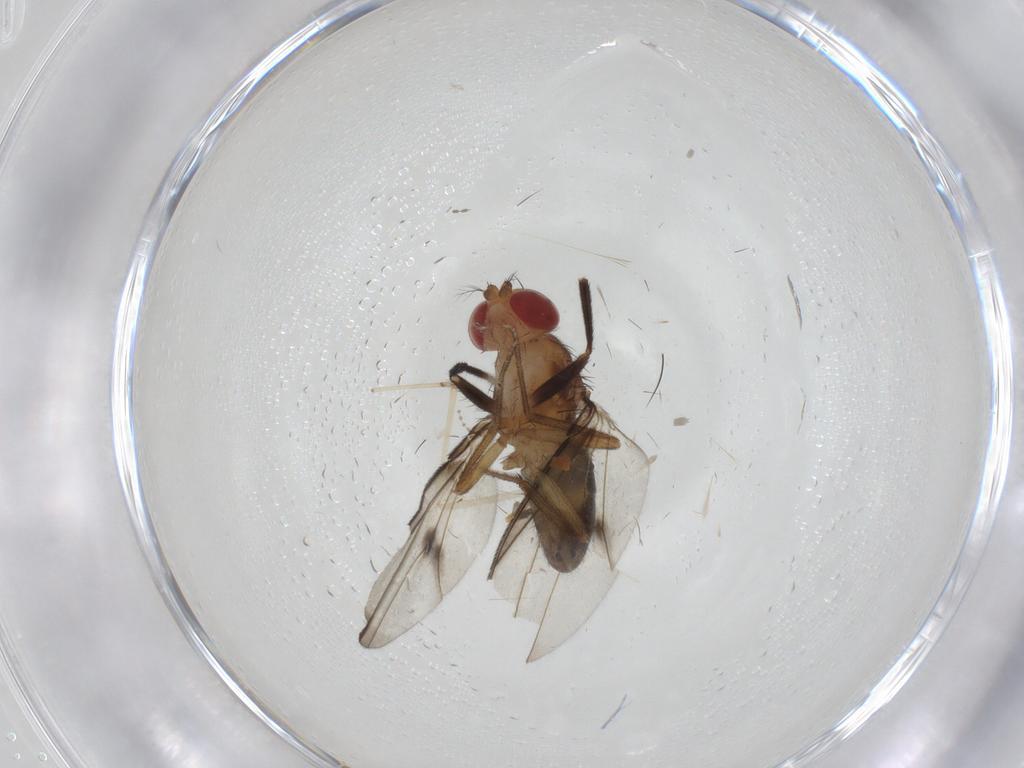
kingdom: Animalia
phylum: Arthropoda
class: Insecta
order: Diptera
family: Drosophilidae
